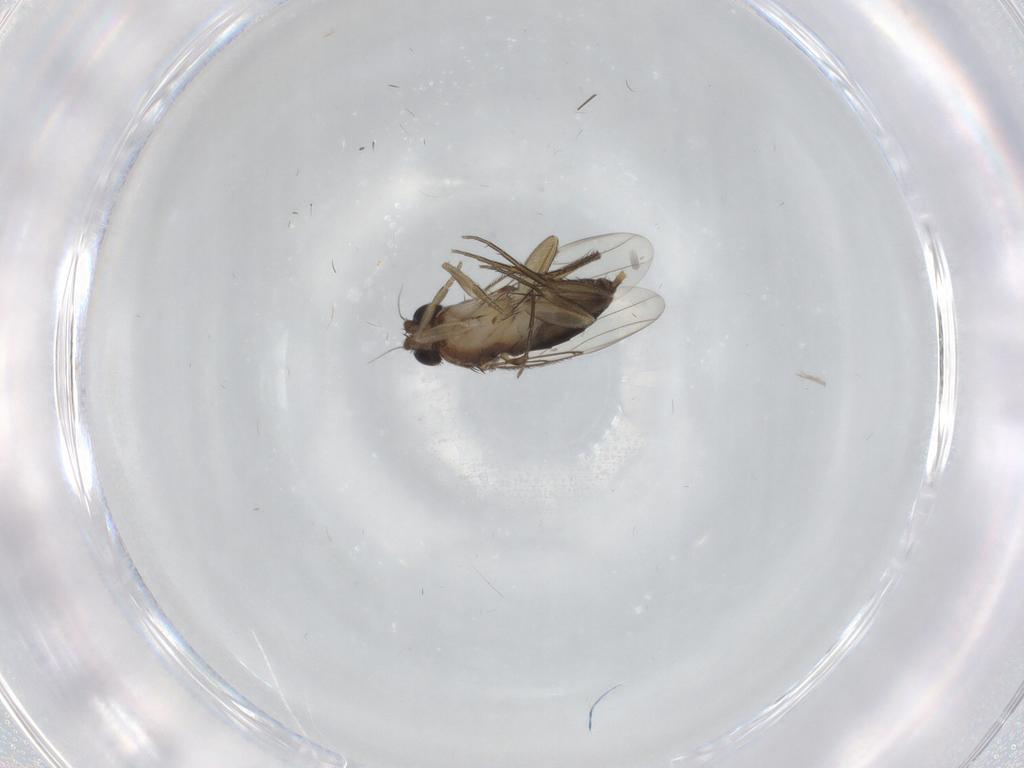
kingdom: Animalia
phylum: Arthropoda
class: Insecta
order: Diptera
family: Phoridae
